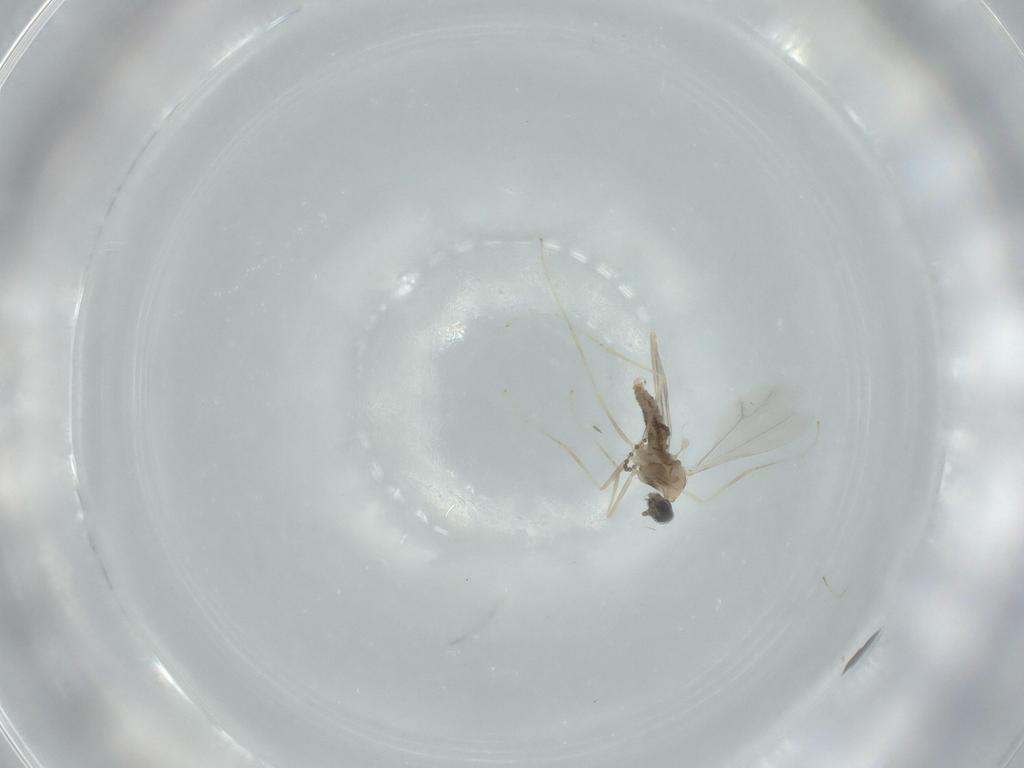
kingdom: Animalia
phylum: Arthropoda
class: Insecta
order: Diptera
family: Cecidomyiidae
